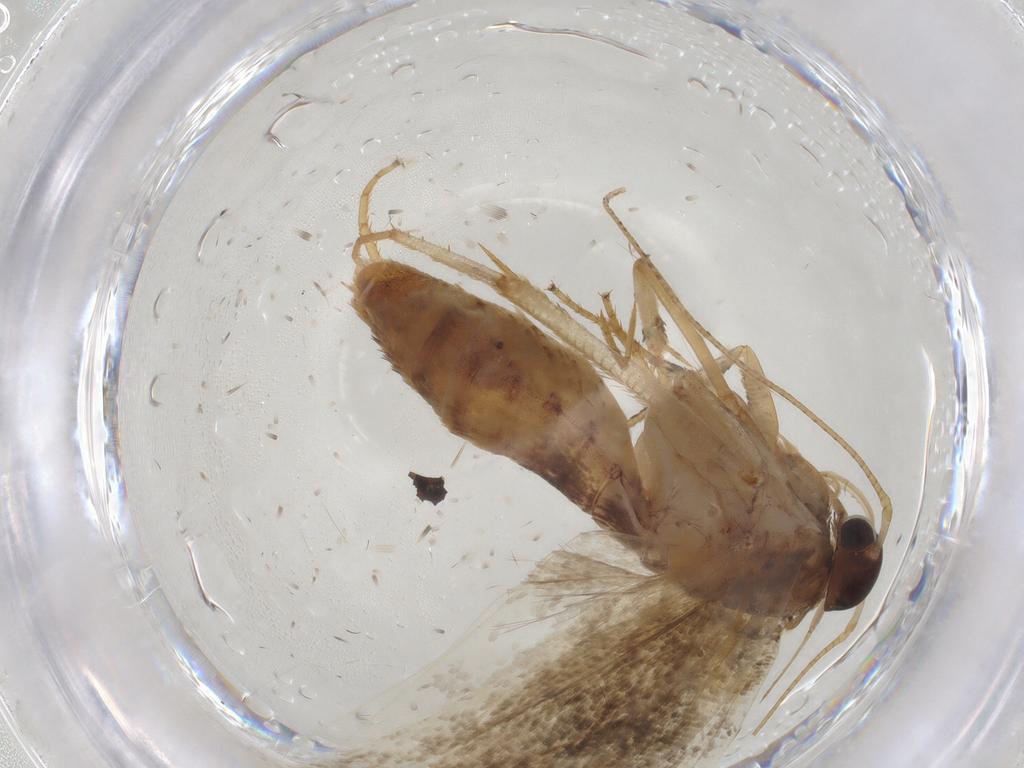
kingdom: Animalia
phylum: Arthropoda
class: Insecta
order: Lepidoptera
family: Gelechiidae
